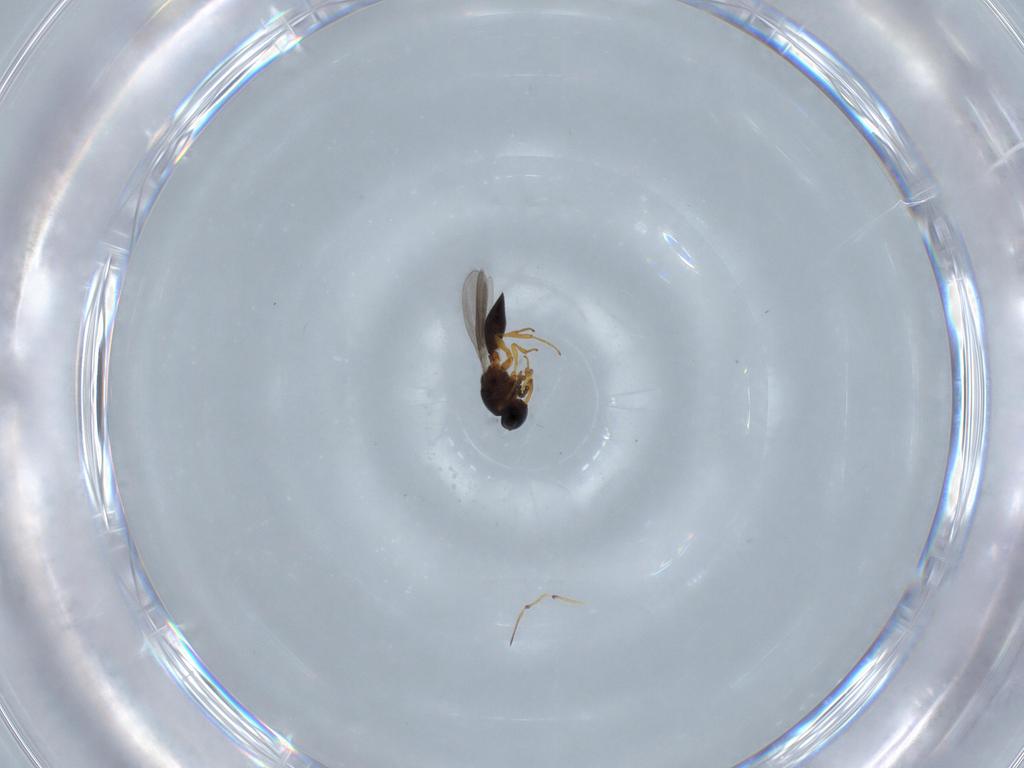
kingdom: Animalia
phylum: Arthropoda
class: Insecta
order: Hymenoptera
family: Platygastridae
